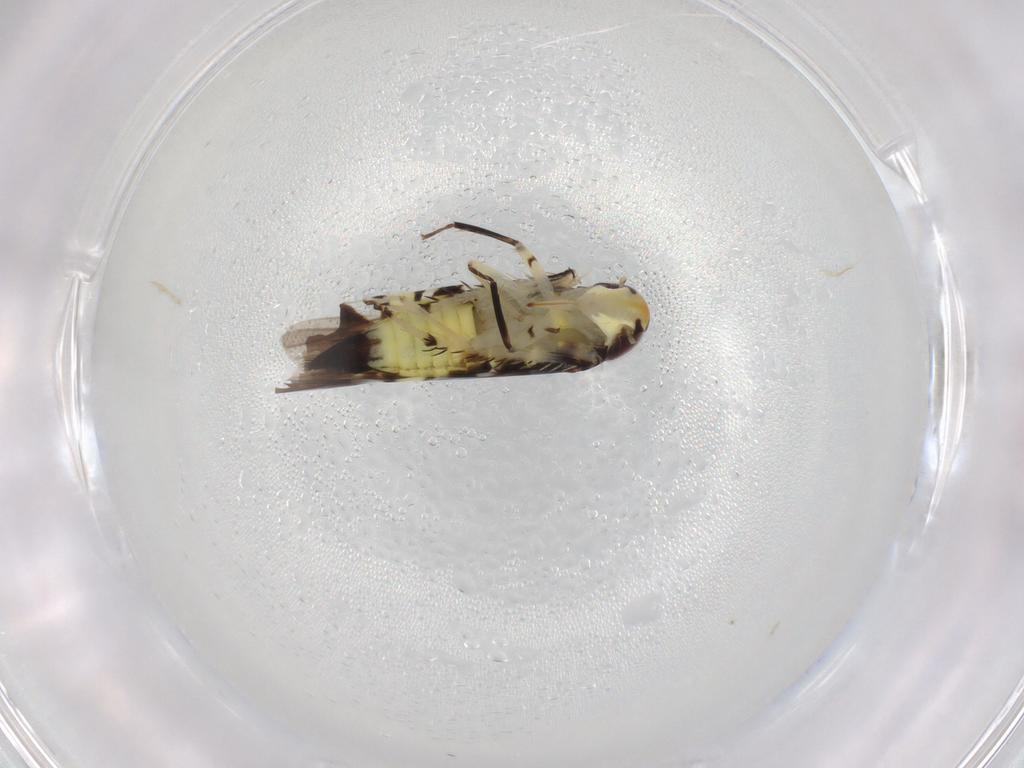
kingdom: Animalia
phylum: Arthropoda
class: Insecta
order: Hemiptera
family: Cicadellidae
